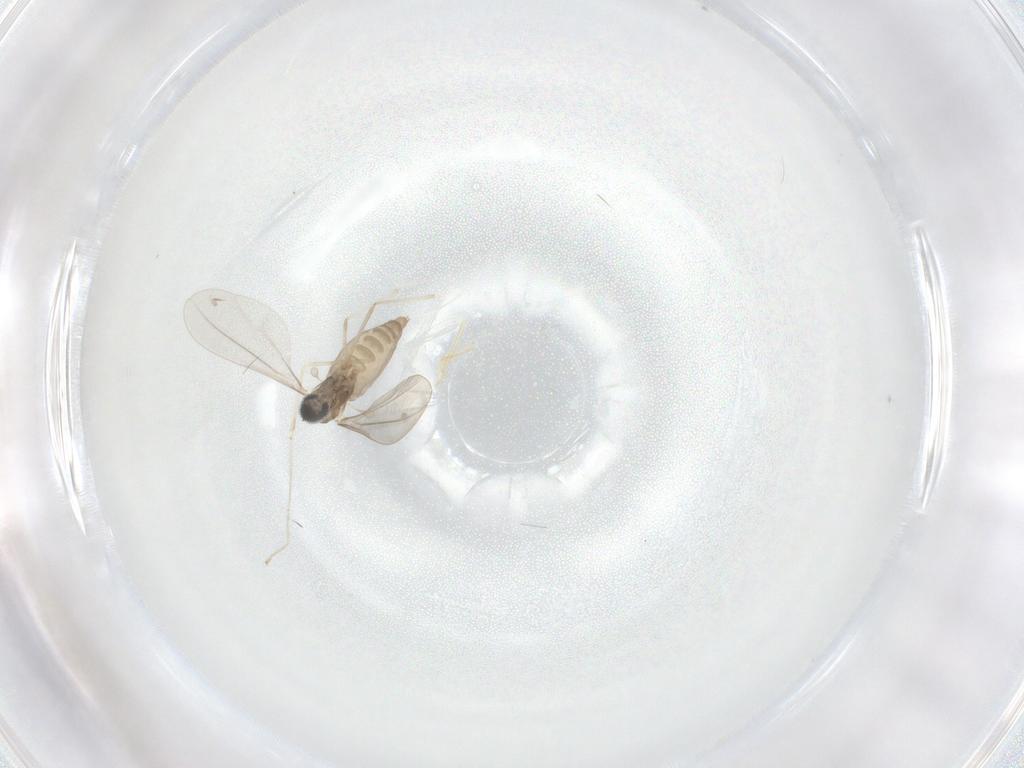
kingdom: Animalia
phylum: Arthropoda
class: Insecta
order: Diptera
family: Cecidomyiidae
